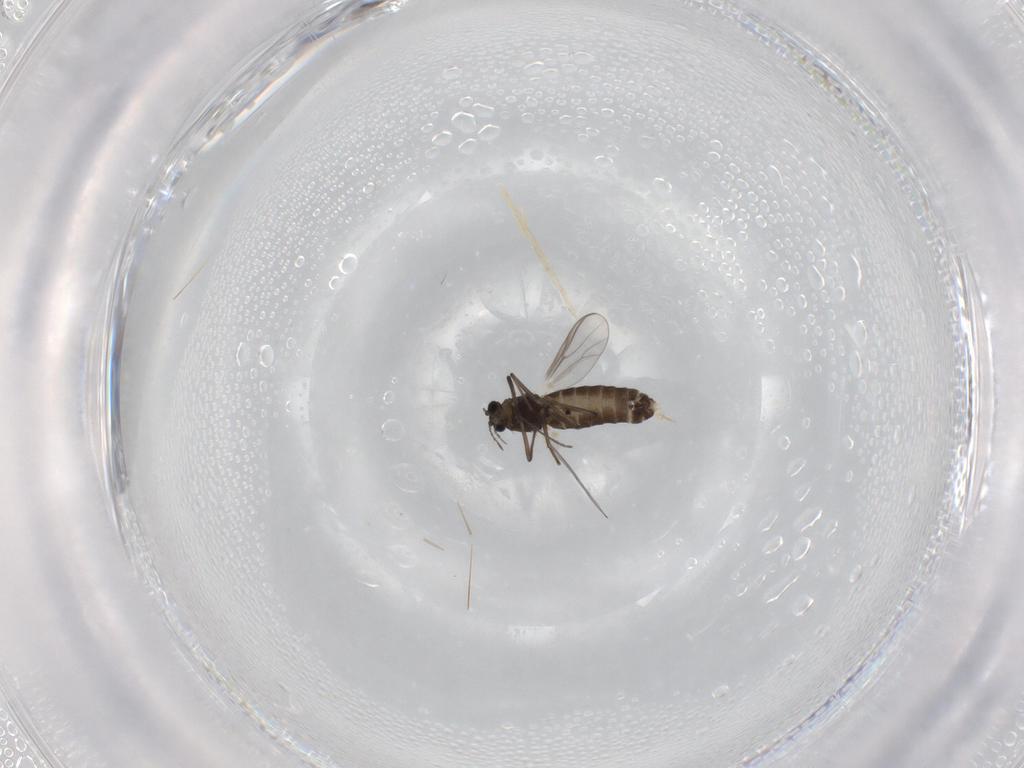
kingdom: Animalia
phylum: Arthropoda
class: Insecta
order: Diptera
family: Chironomidae
